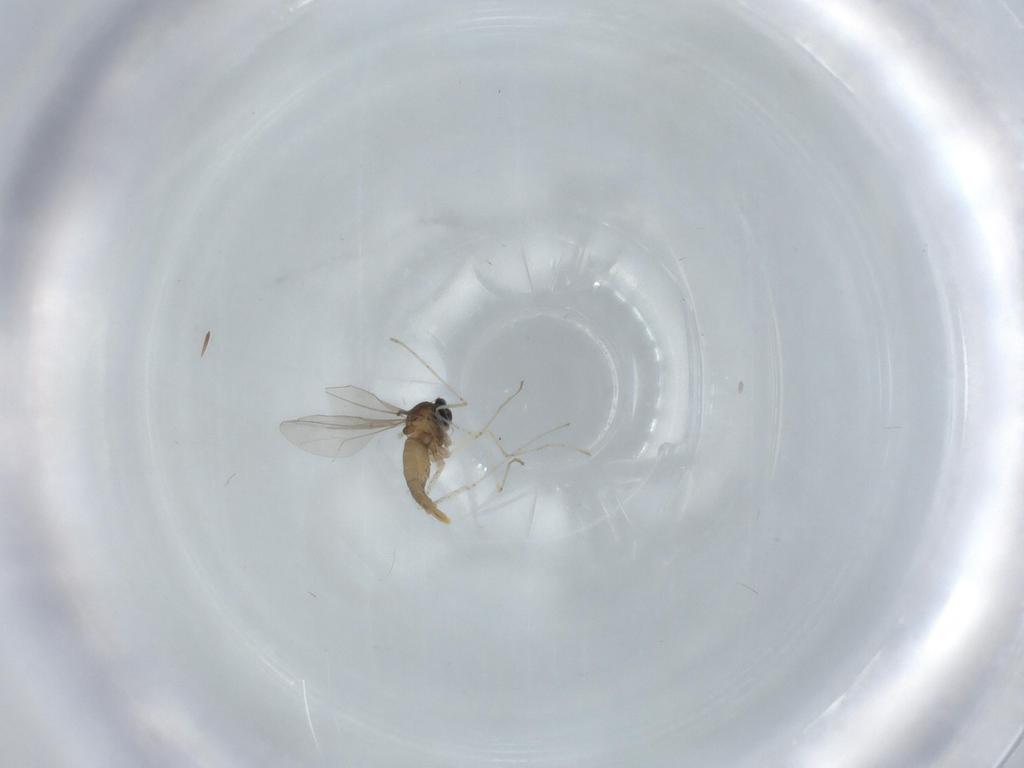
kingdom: Animalia
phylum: Arthropoda
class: Insecta
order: Diptera
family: Cecidomyiidae
